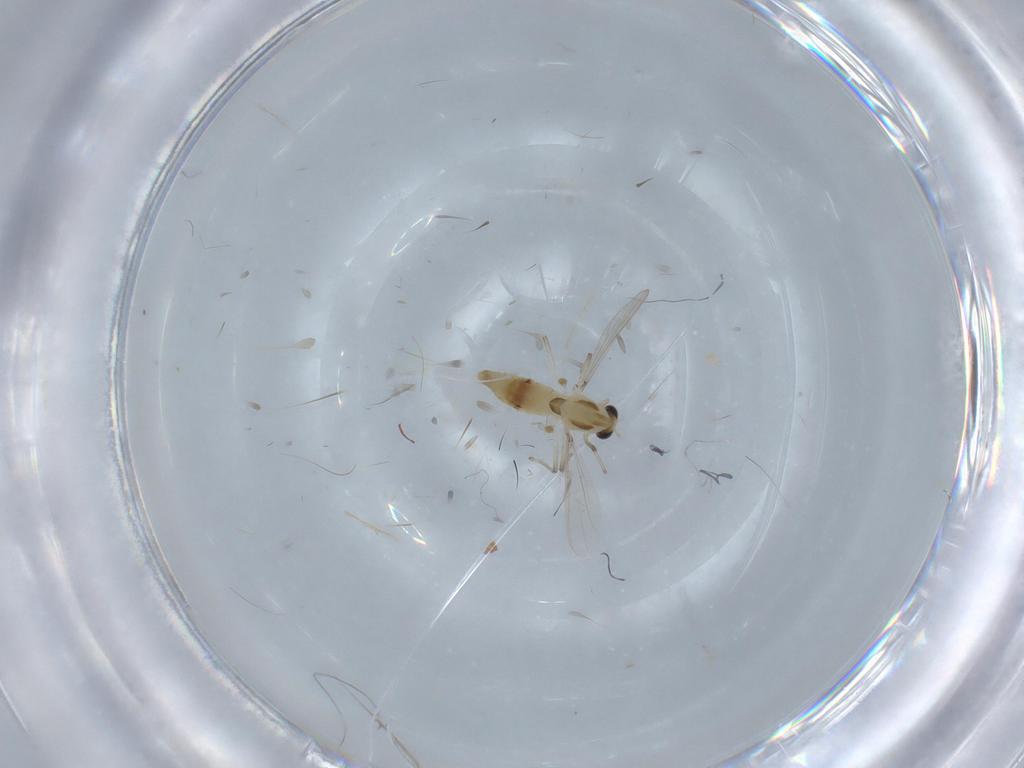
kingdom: Animalia
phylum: Arthropoda
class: Insecta
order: Diptera
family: Chironomidae
